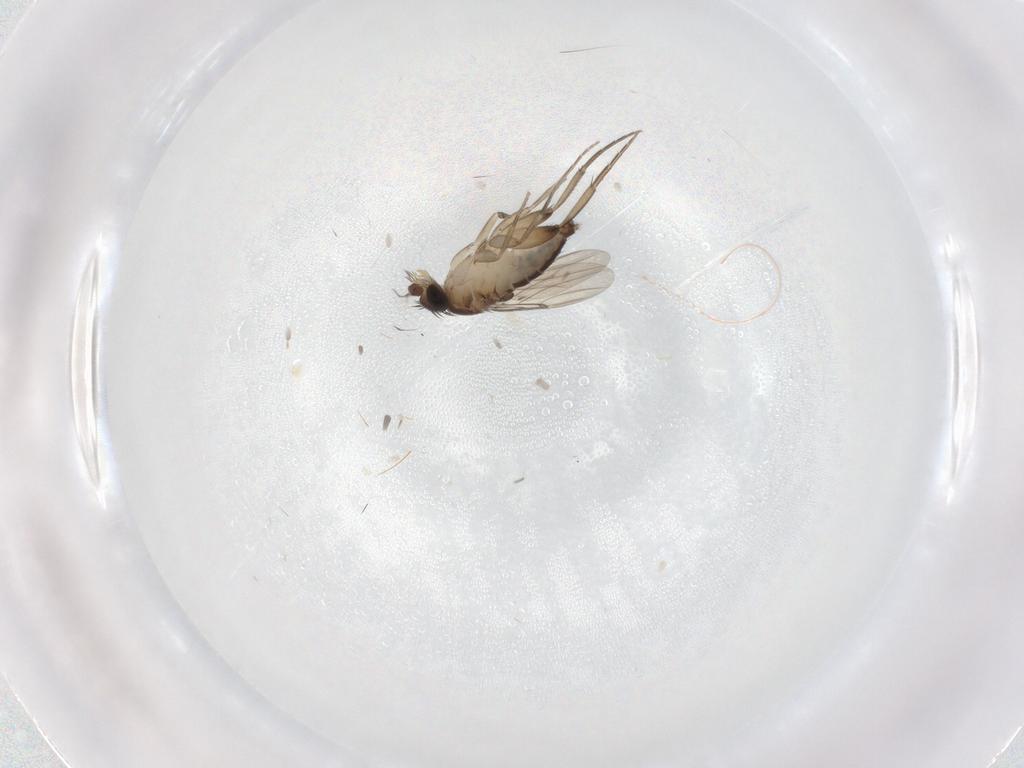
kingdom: Animalia
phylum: Arthropoda
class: Insecta
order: Diptera
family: Phoridae
